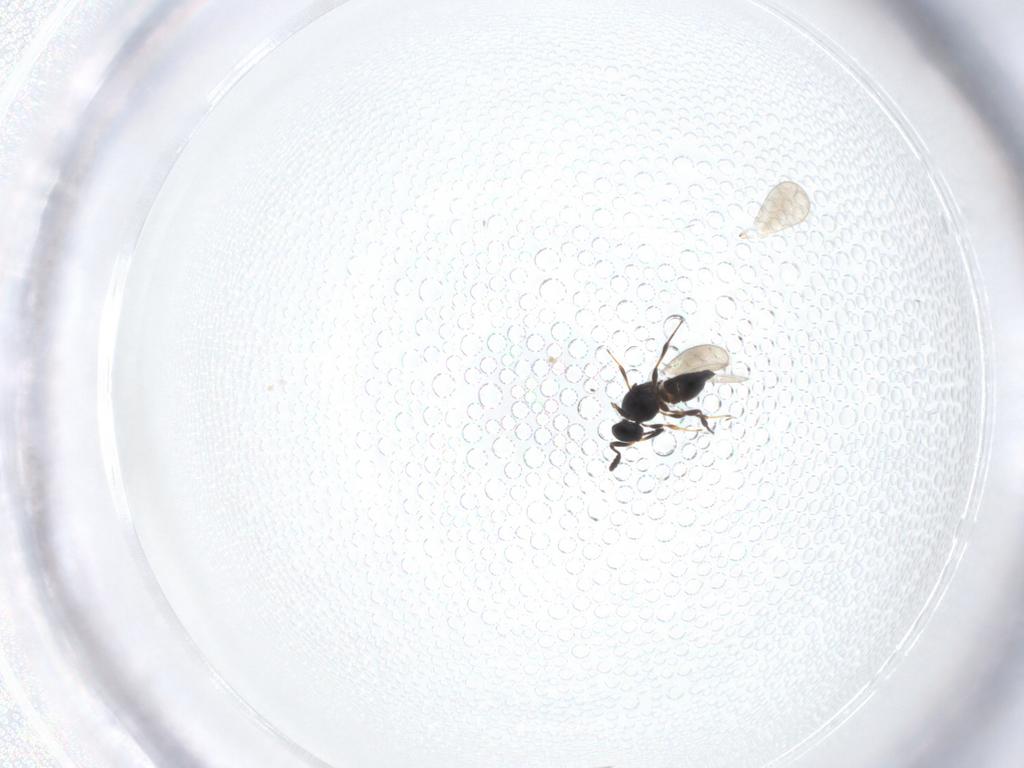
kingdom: Animalia
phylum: Arthropoda
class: Insecta
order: Hymenoptera
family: Platygastridae
